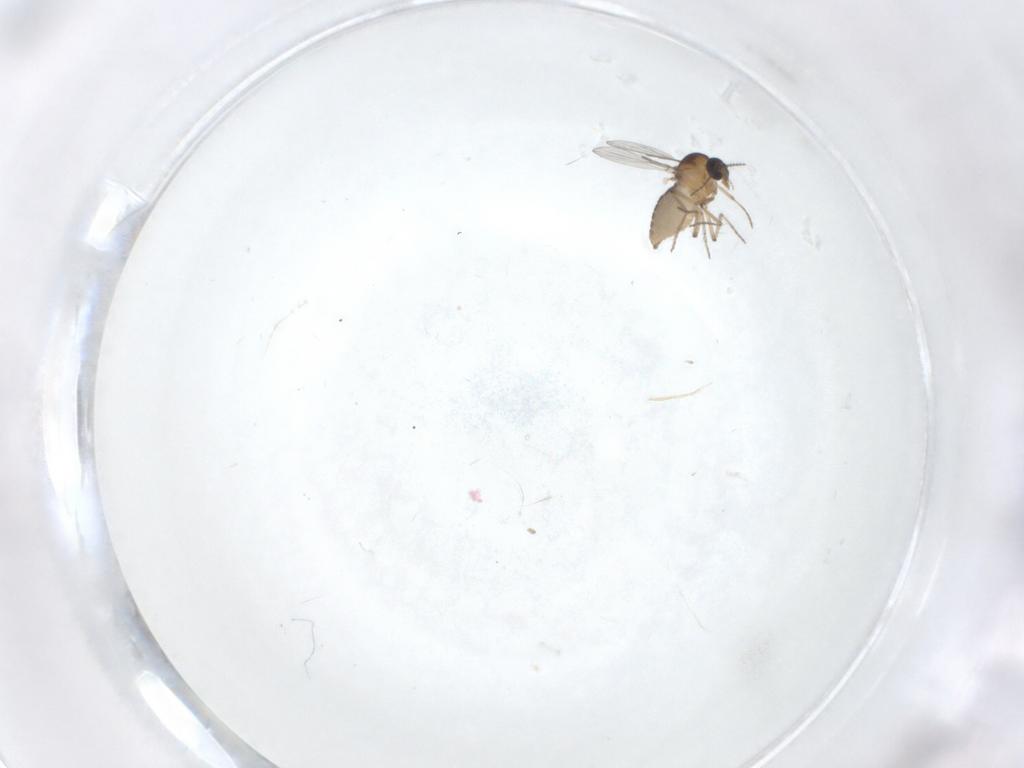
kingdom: Animalia
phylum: Arthropoda
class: Insecta
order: Diptera
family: Phoridae
